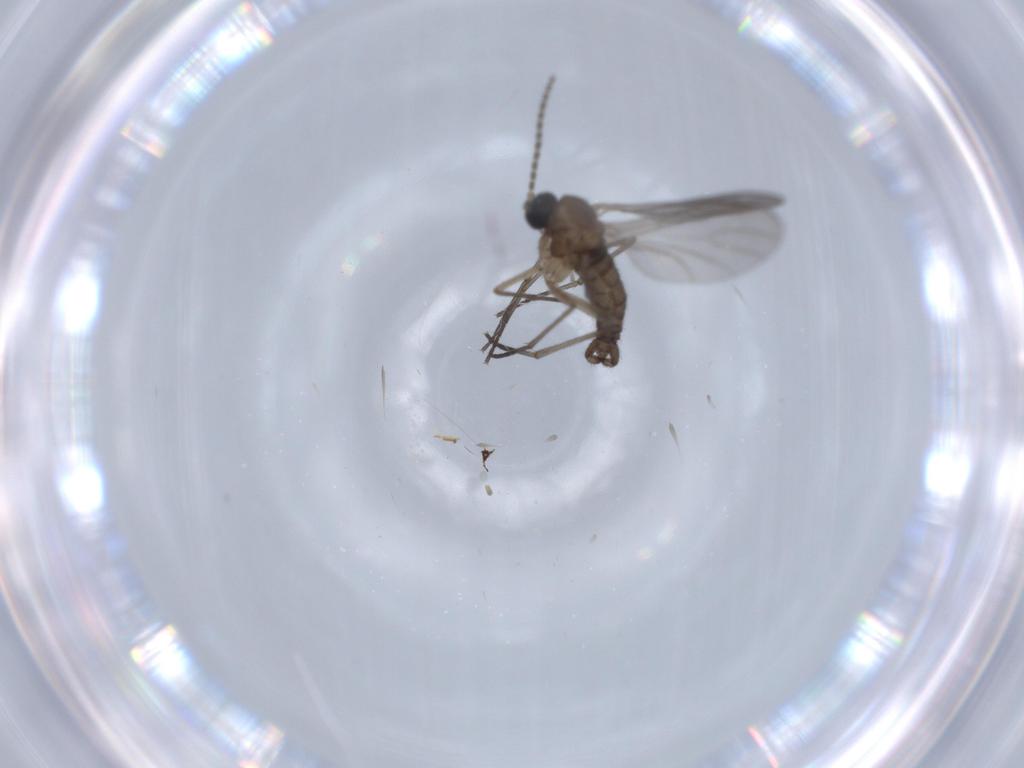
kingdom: Animalia
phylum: Arthropoda
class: Insecta
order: Diptera
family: Sciaridae
